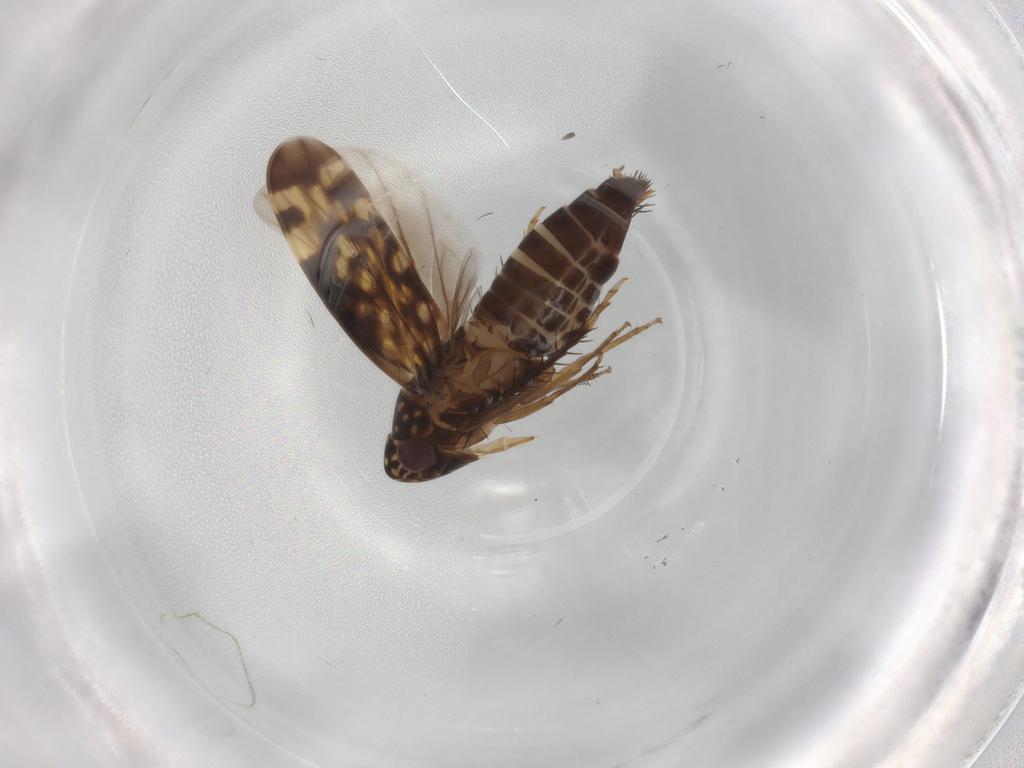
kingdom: Animalia
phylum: Arthropoda
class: Insecta
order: Hemiptera
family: Cicadellidae
